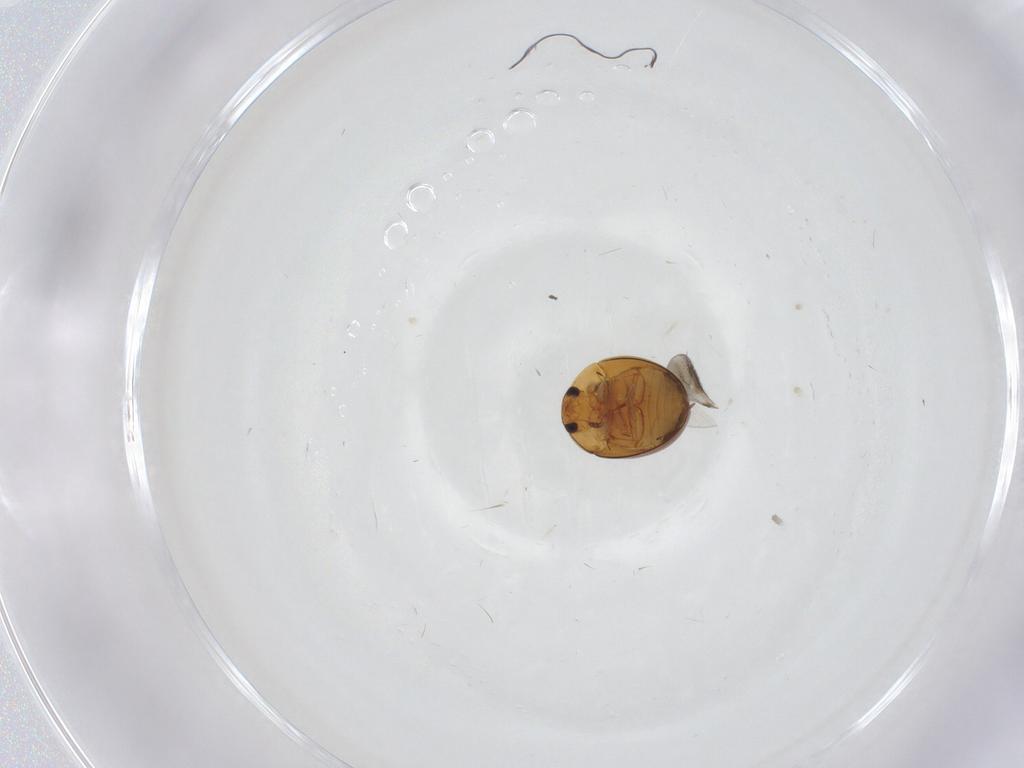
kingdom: Animalia
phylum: Arthropoda
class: Insecta
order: Coleoptera
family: Phalacridae
